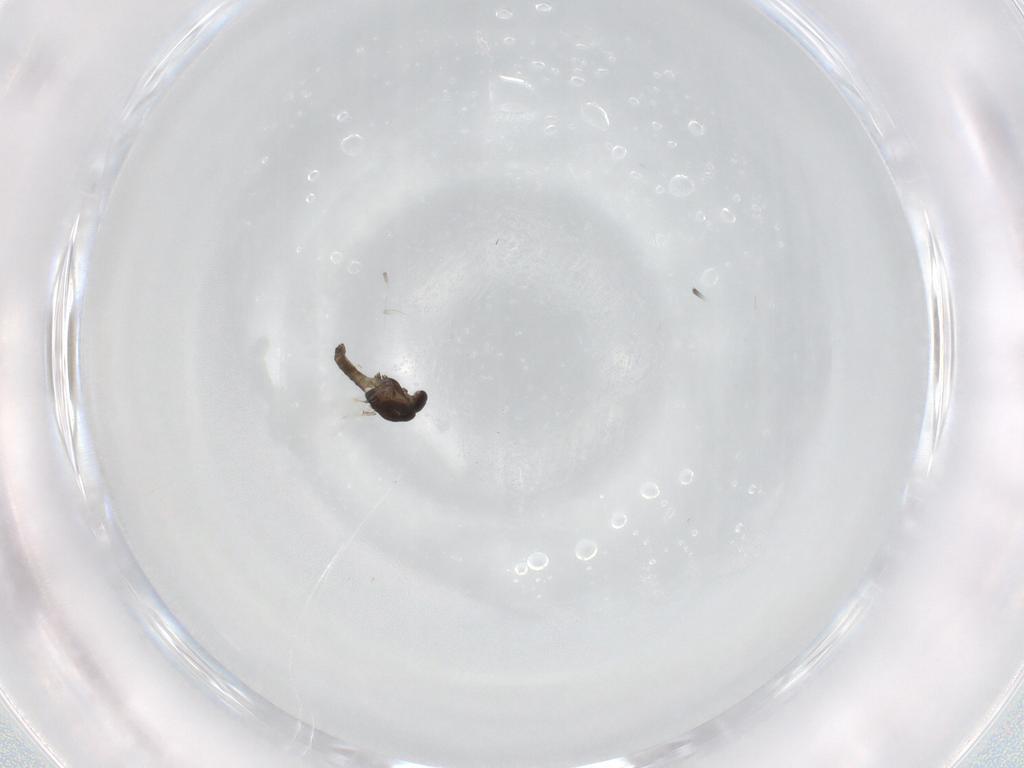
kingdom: Animalia
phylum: Arthropoda
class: Insecta
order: Diptera
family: Chironomidae
